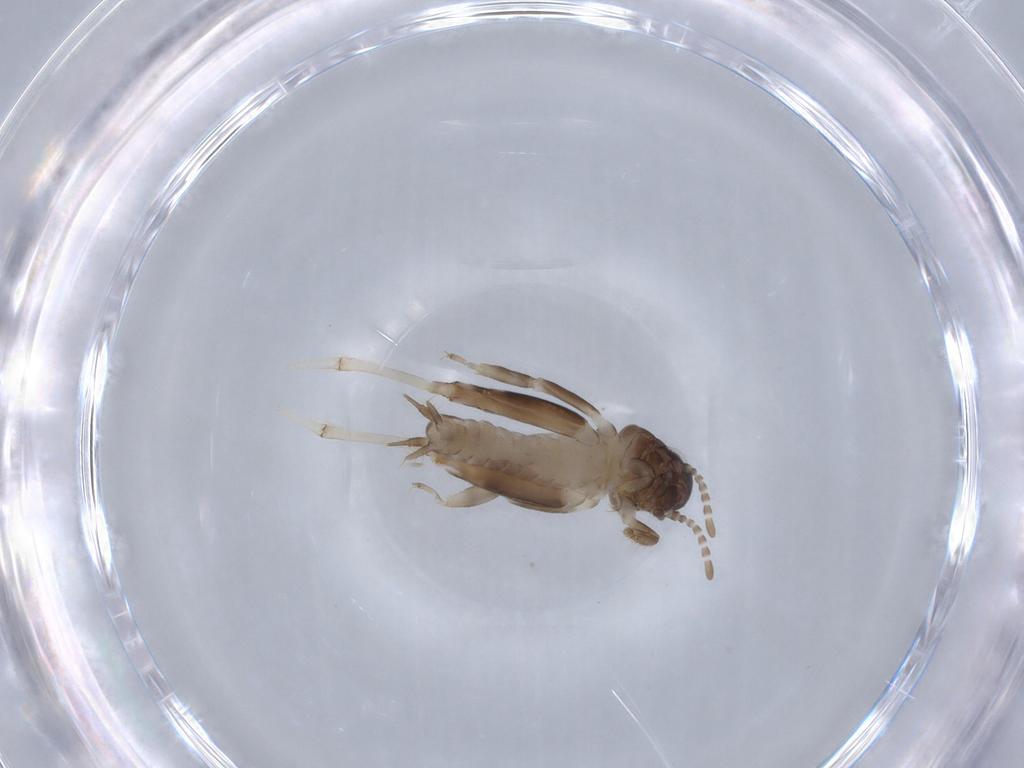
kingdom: Animalia
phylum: Arthropoda
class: Insecta
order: Orthoptera
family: Tridactylidae
